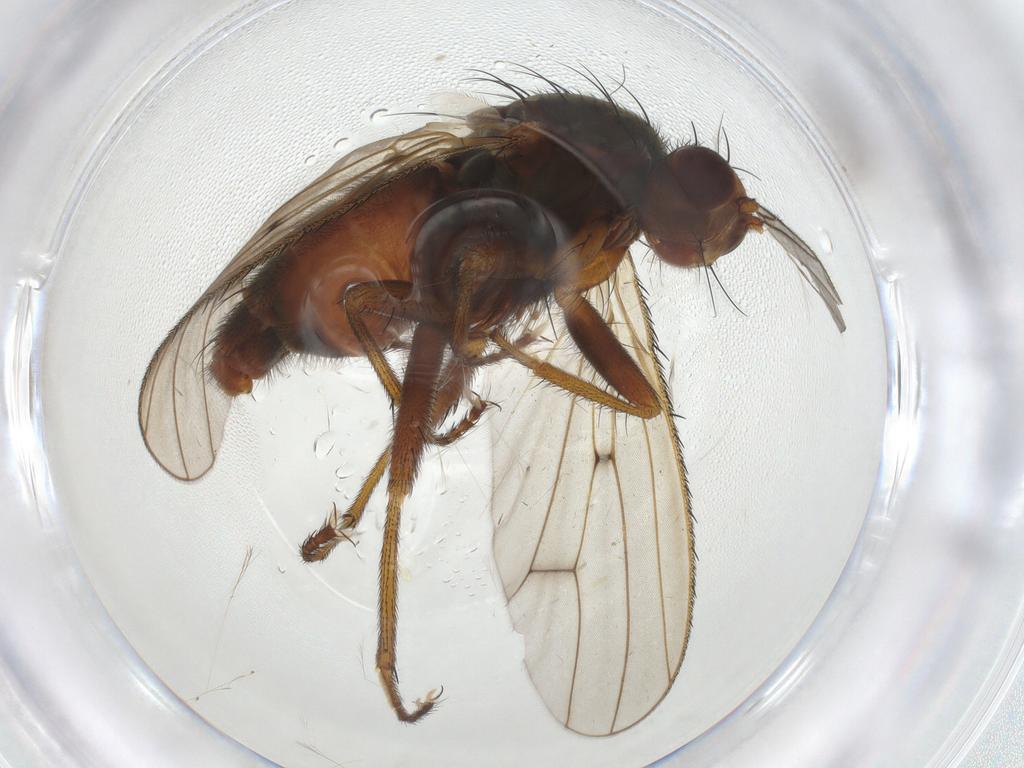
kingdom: Animalia
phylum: Arthropoda
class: Insecta
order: Diptera
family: Heleomyzidae
